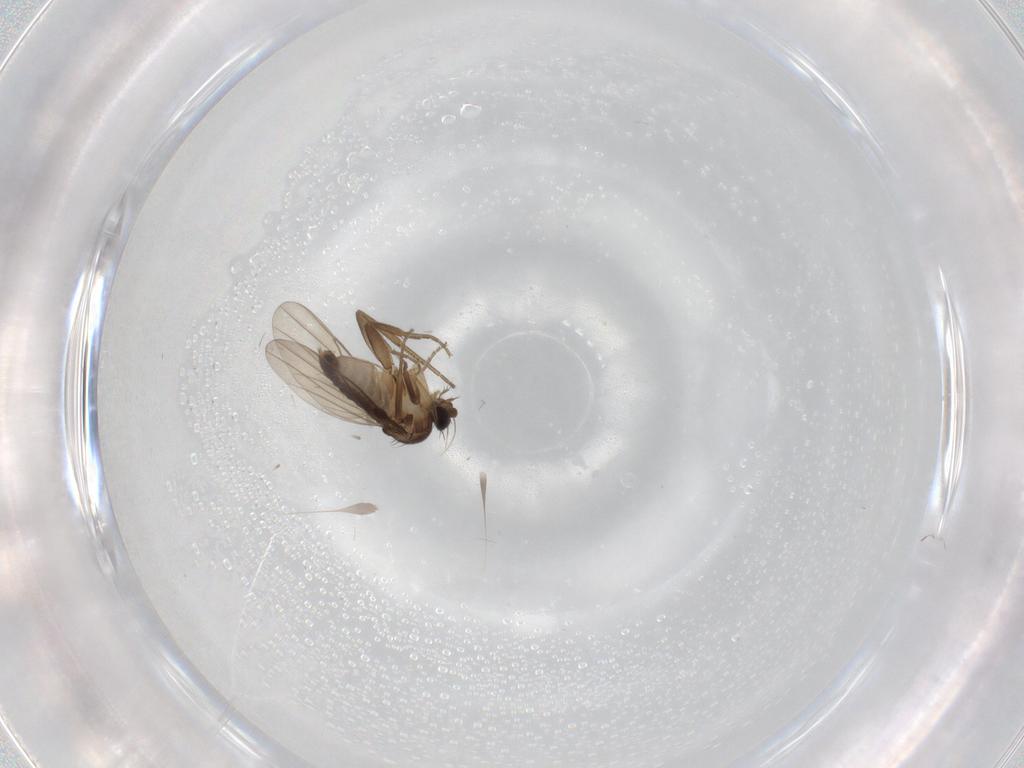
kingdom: Animalia
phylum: Arthropoda
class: Insecta
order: Diptera
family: Phoridae
